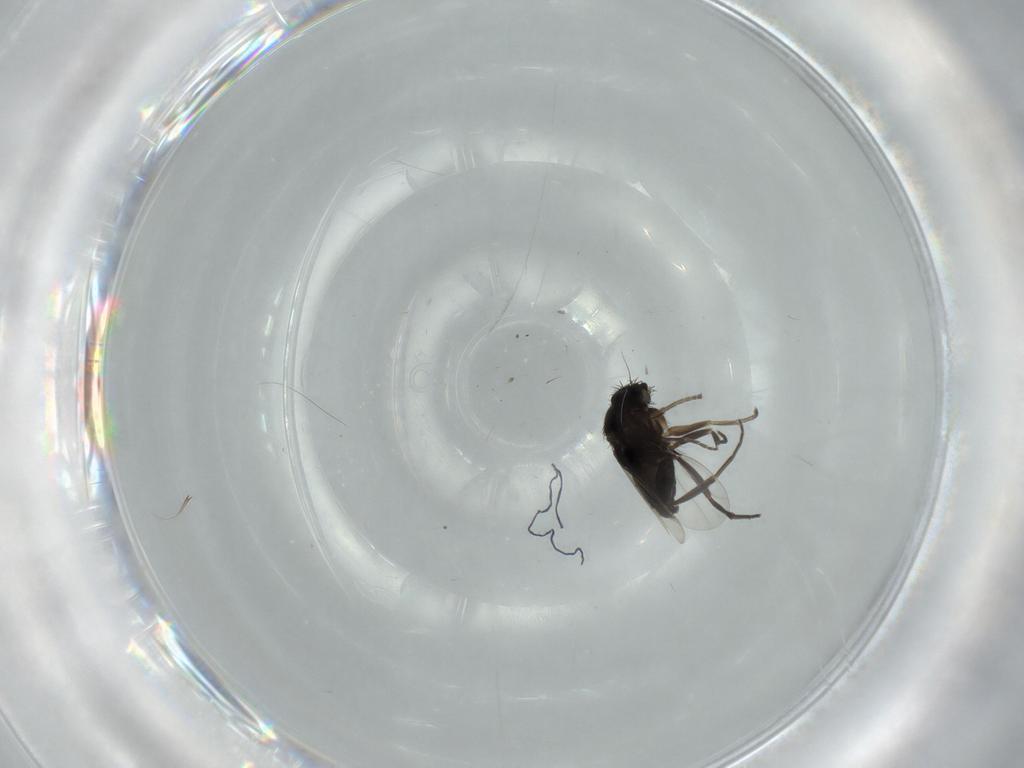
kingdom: Animalia
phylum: Arthropoda
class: Insecta
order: Diptera
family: Phoridae
